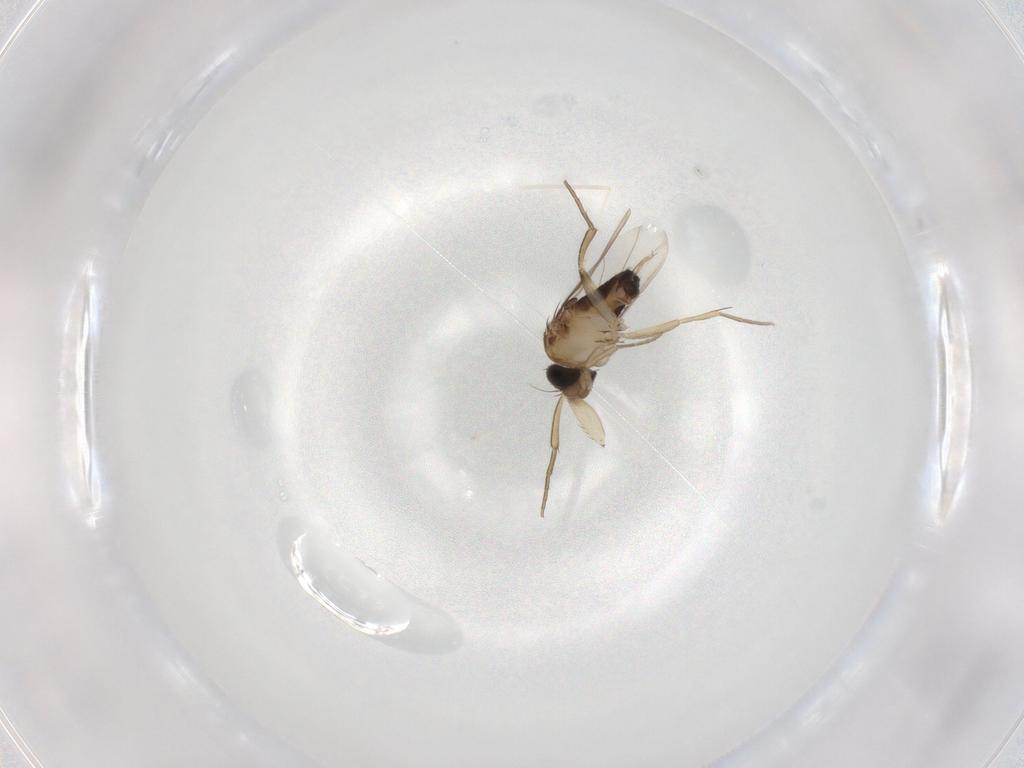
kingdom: Animalia
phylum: Arthropoda
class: Insecta
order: Diptera
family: Phoridae
